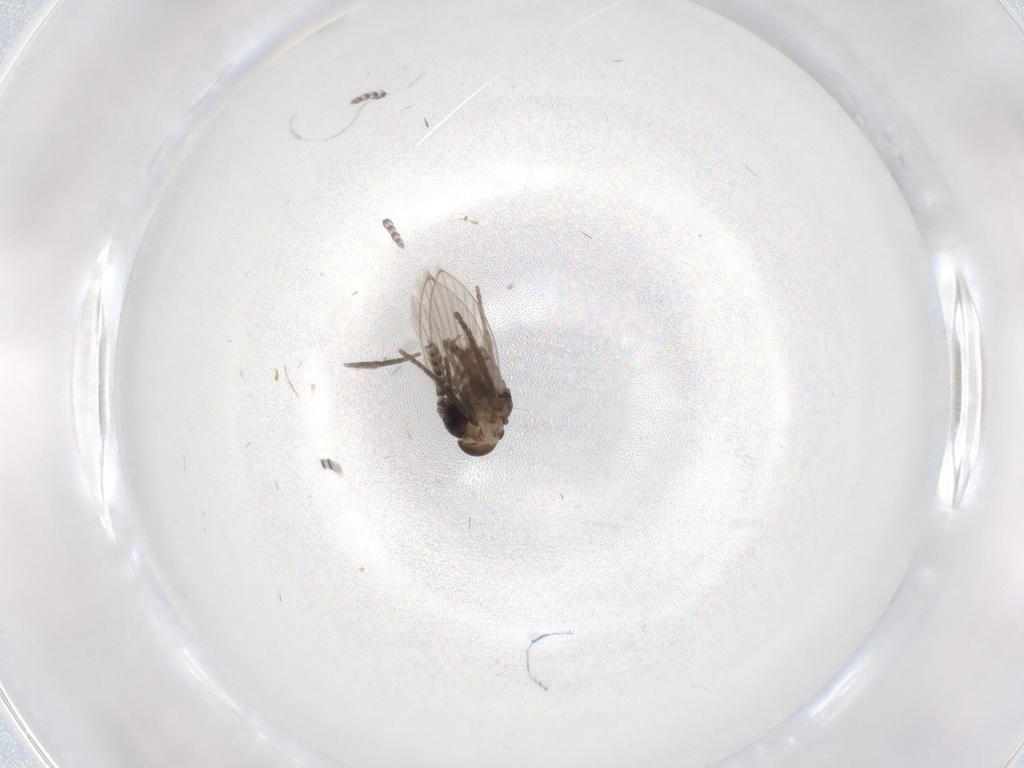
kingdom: Animalia
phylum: Arthropoda
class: Insecta
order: Diptera
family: Psychodidae
